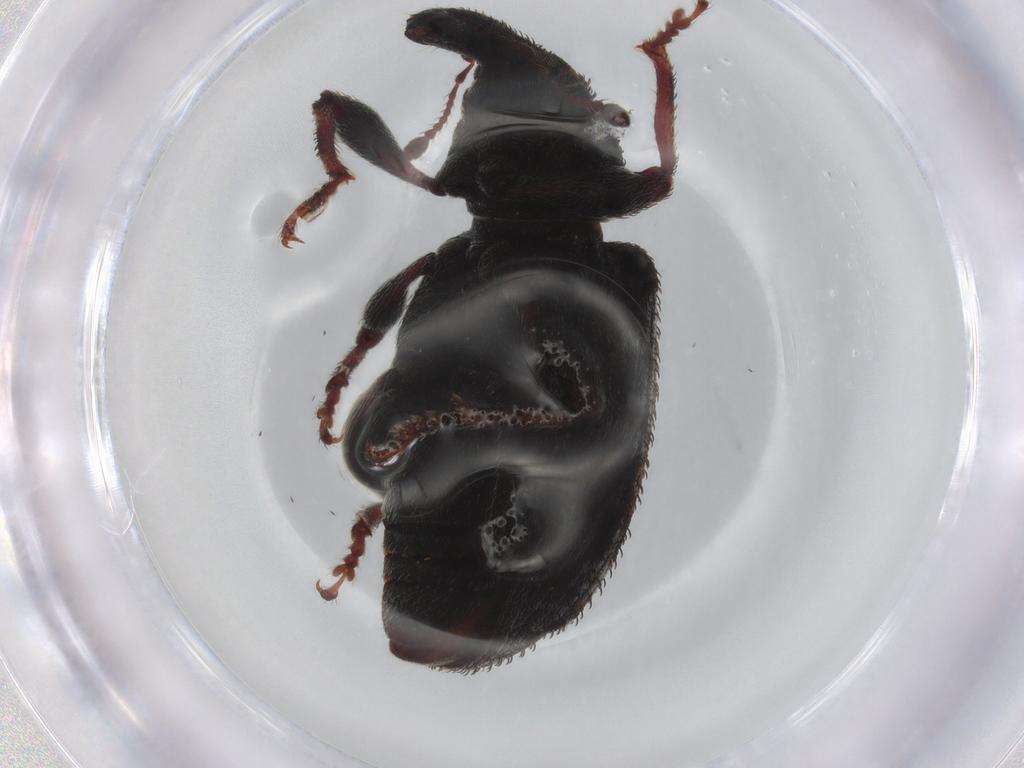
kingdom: Animalia
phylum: Arthropoda
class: Insecta
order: Coleoptera
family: Curculionidae
